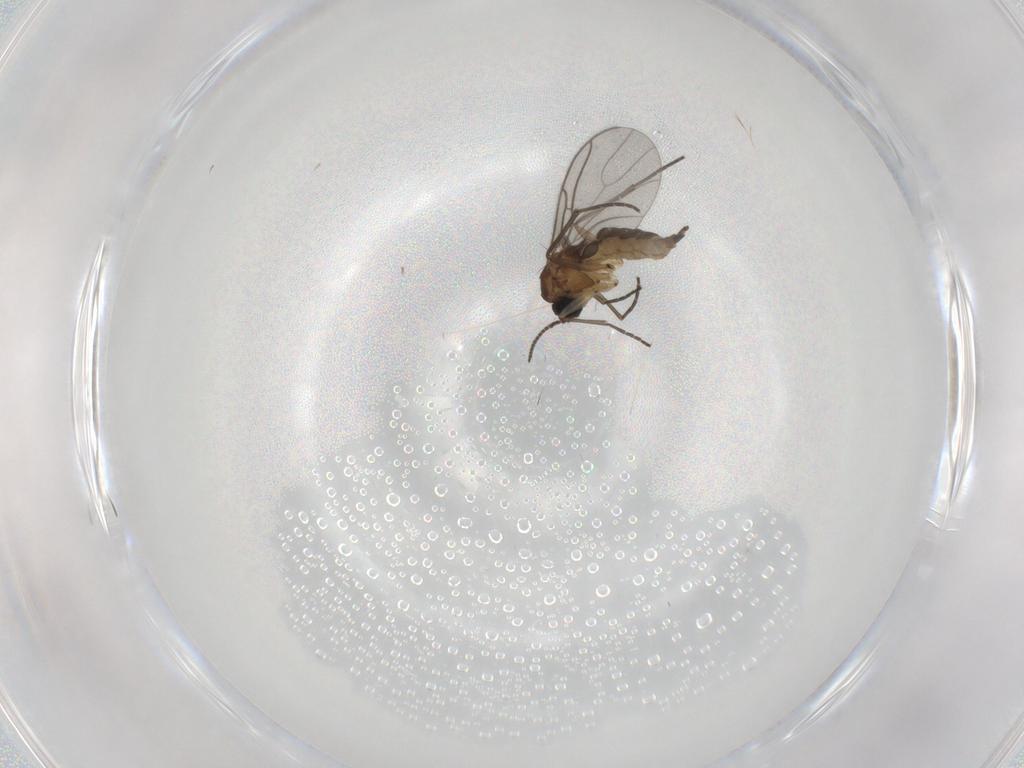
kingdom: Animalia
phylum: Arthropoda
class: Insecta
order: Diptera
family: Sciaridae
